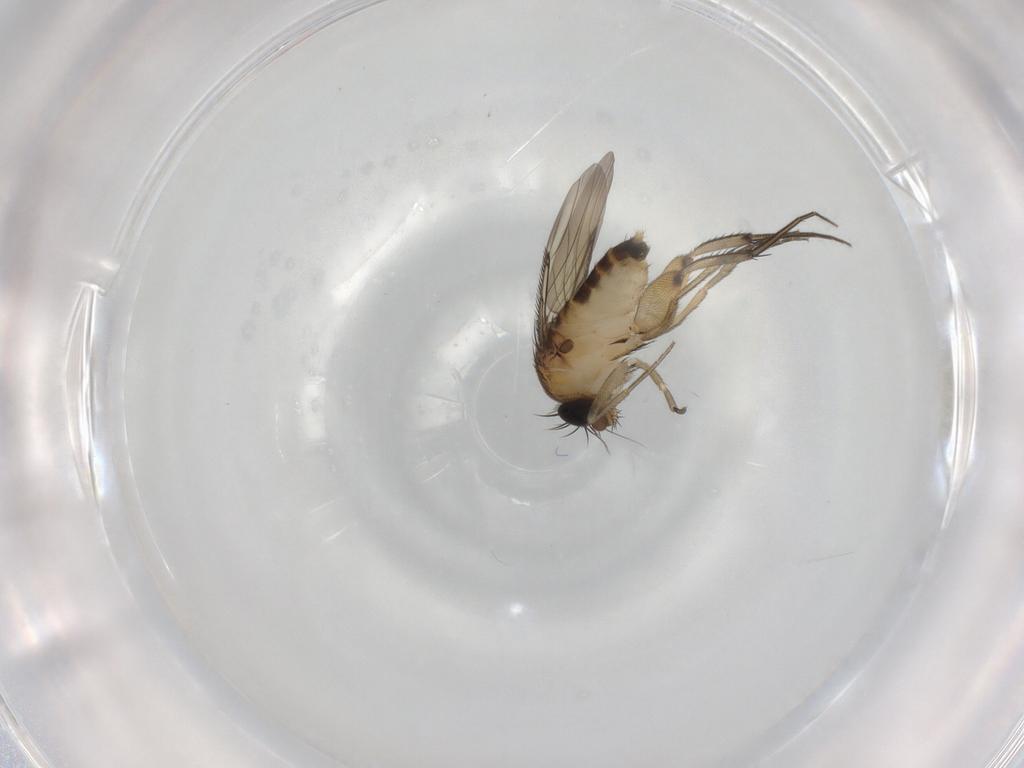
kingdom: Animalia
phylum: Arthropoda
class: Insecta
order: Diptera
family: Phoridae
